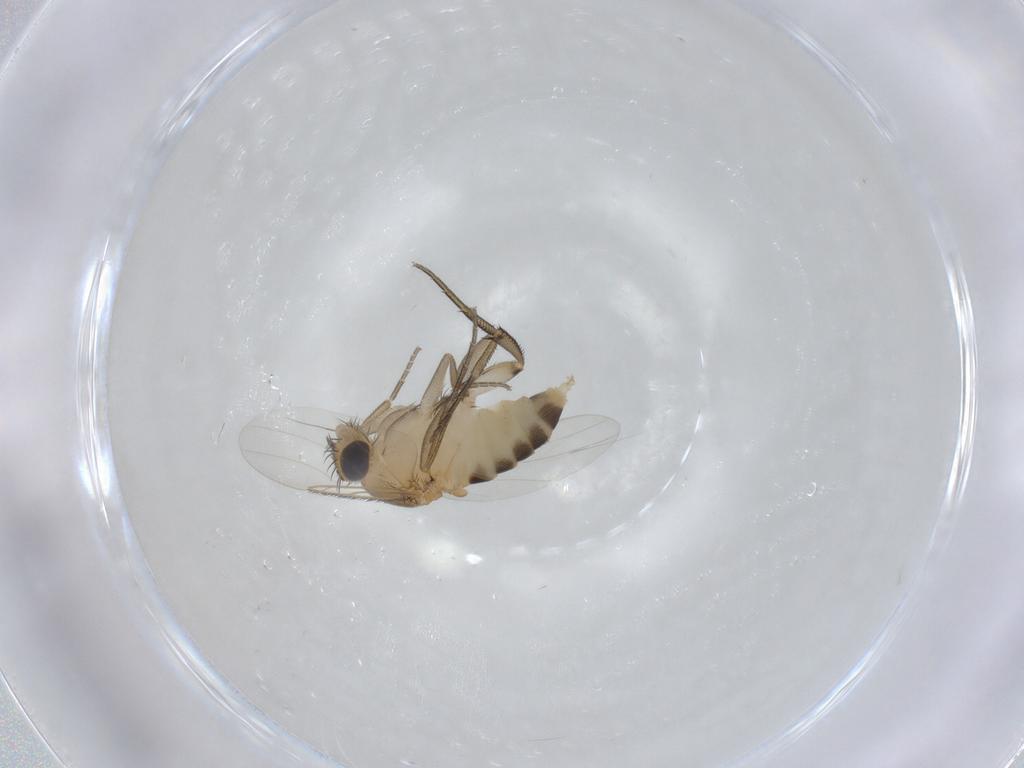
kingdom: Animalia
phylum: Arthropoda
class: Insecta
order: Diptera
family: Phoridae
